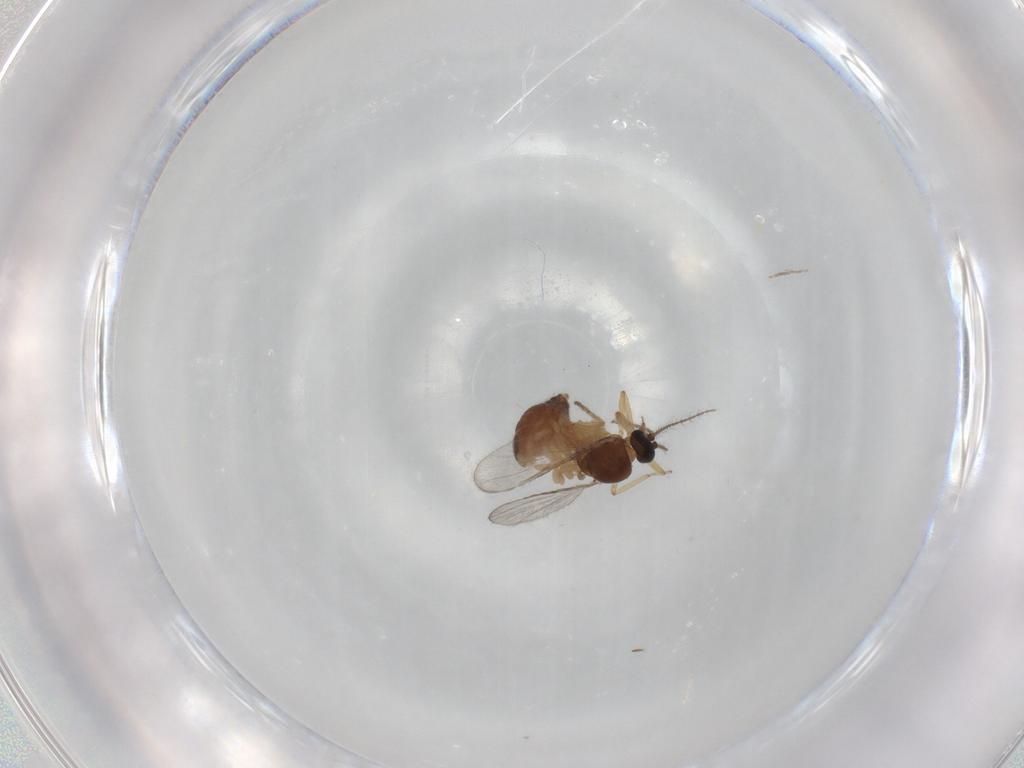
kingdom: Animalia
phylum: Arthropoda
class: Insecta
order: Diptera
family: Ceratopogonidae
